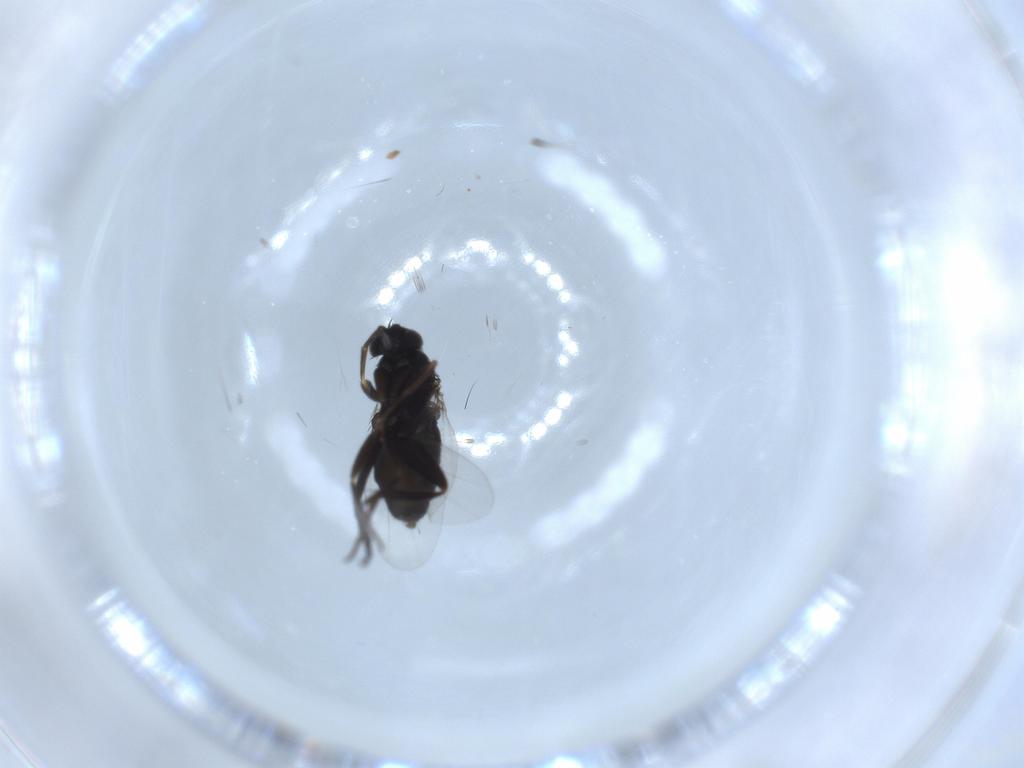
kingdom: Animalia
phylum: Arthropoda
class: Insecta
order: Diptera
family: Phoridae
